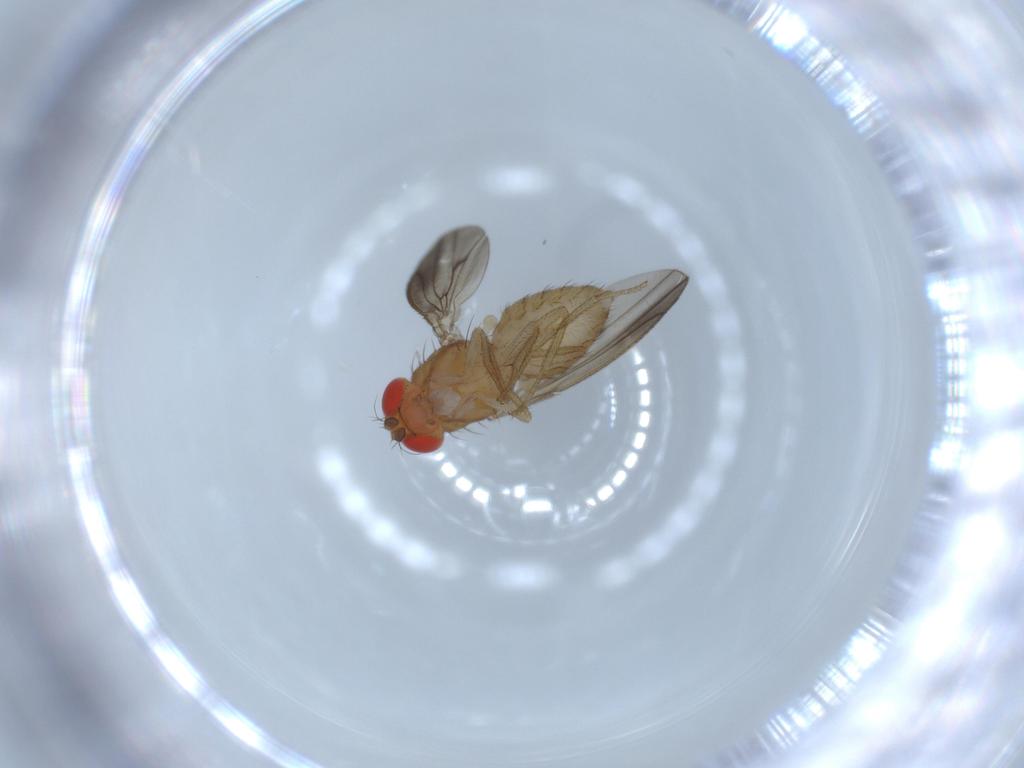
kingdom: Animalia
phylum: Arthropoda
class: Insecta
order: Diptera
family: Drosophilidae
